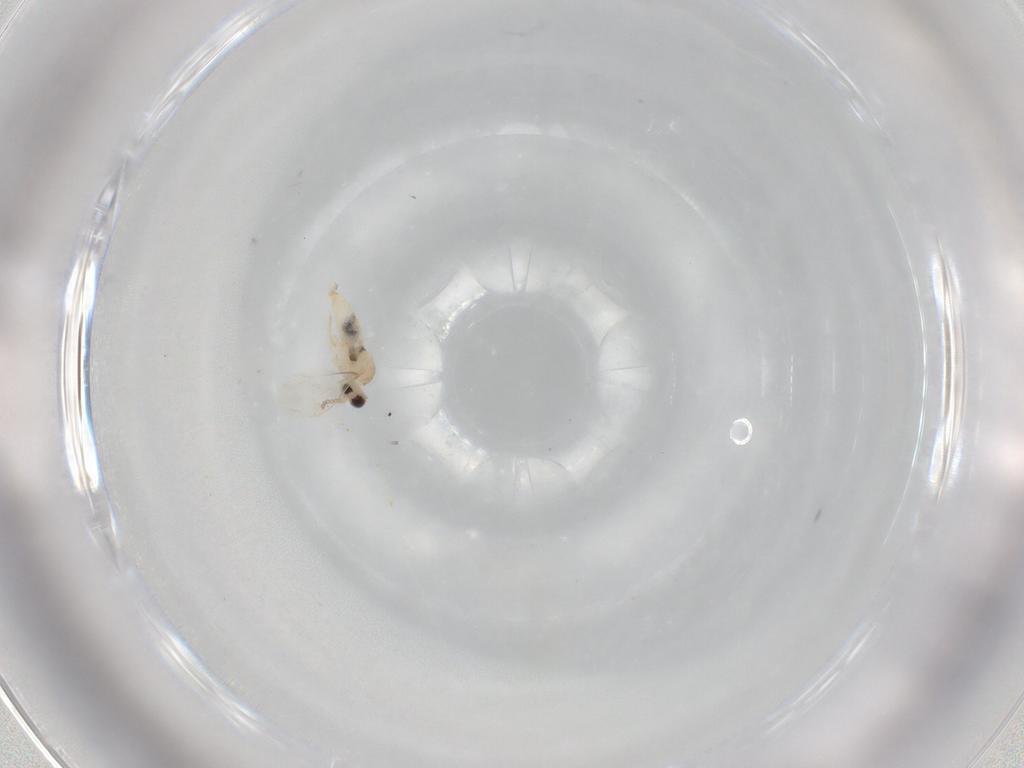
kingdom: Animalia
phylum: Arthropoda
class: Insecta
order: Diptera
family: Cecidomyiidae
